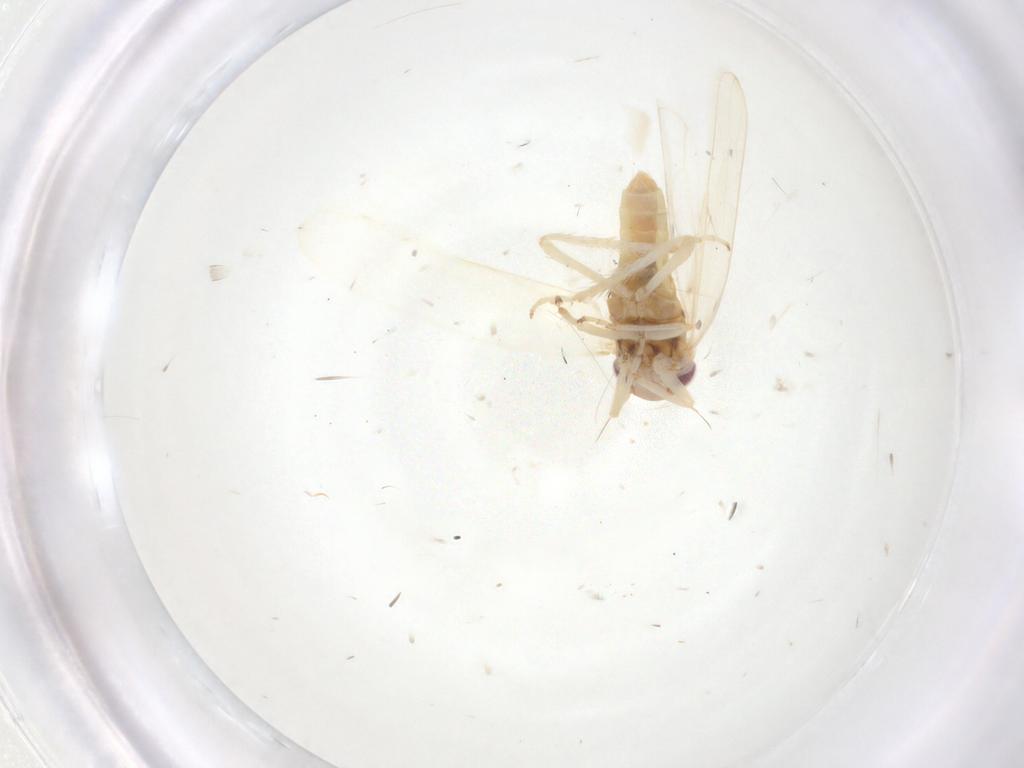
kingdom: Animalia
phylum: Arthropoda
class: Insecta
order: Hemiptera
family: Cicadellidae
